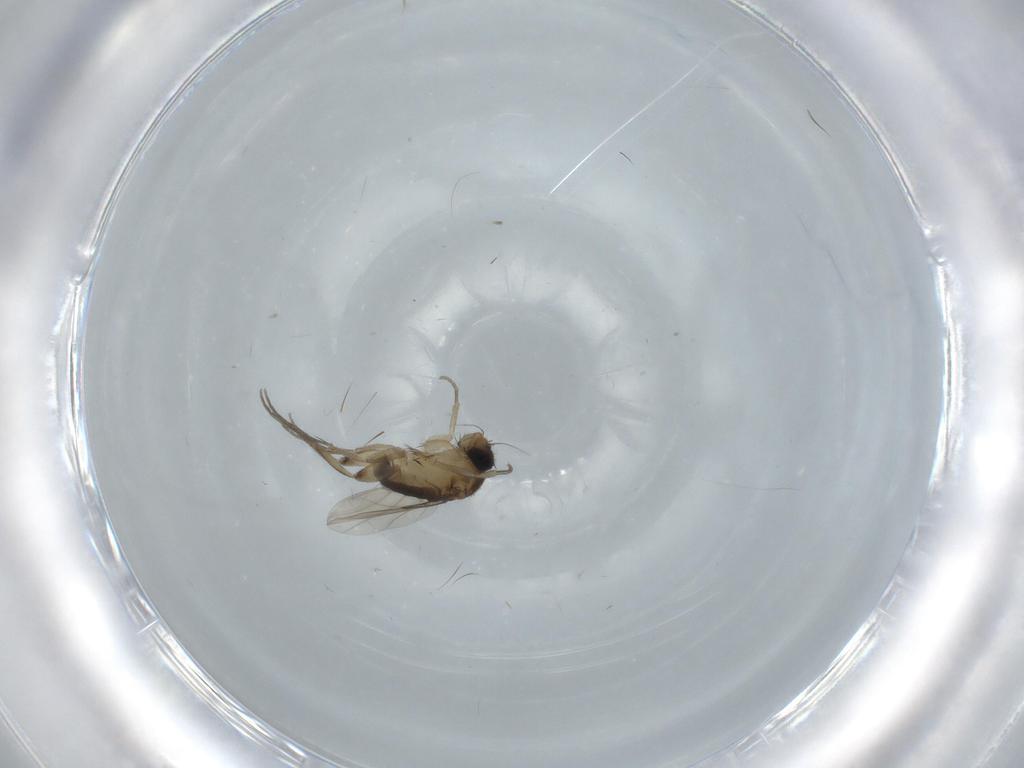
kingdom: Animalia
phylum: Arthropoda
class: Insecta
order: Diptera
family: Cecidomyiidae
